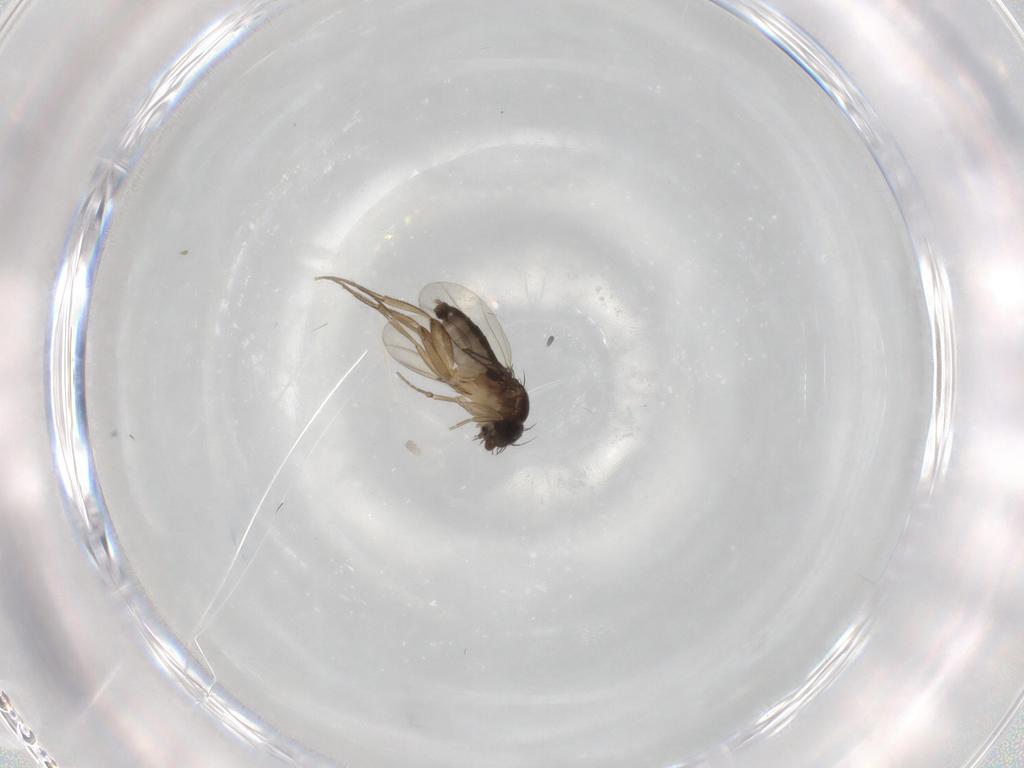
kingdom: Animalia
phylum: Arthropoda
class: Insecta
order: Diptera
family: Phoridae
